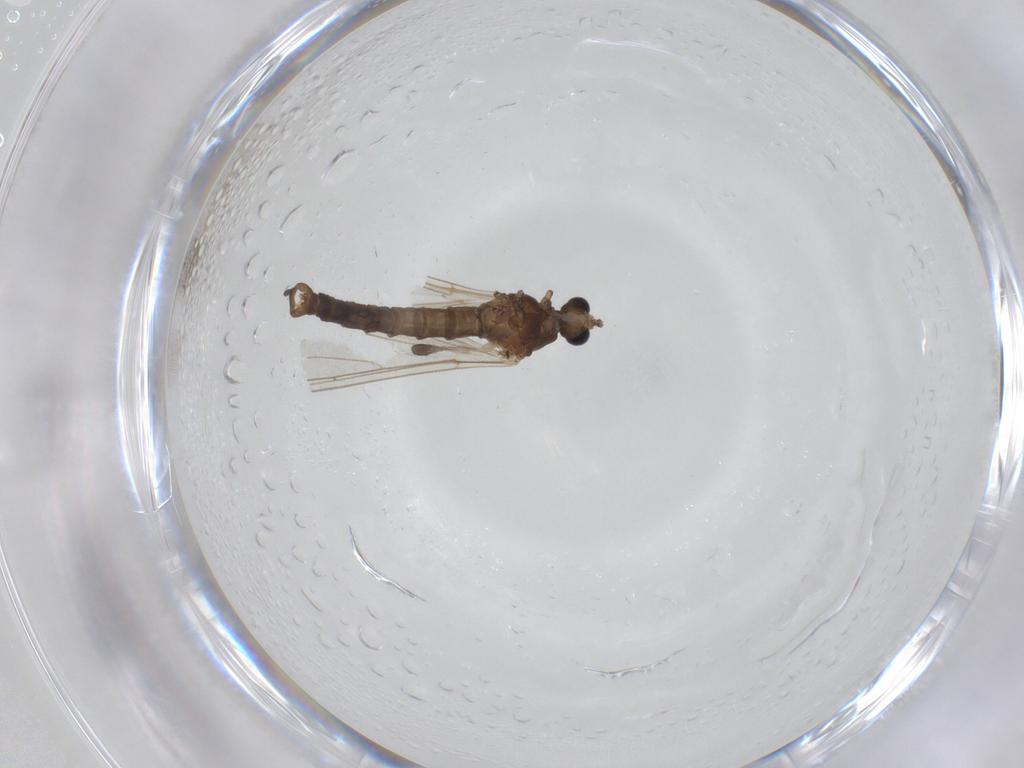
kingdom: Animalia
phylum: Arthropoda
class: Insecta
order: Diptera
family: Trichoceridae
